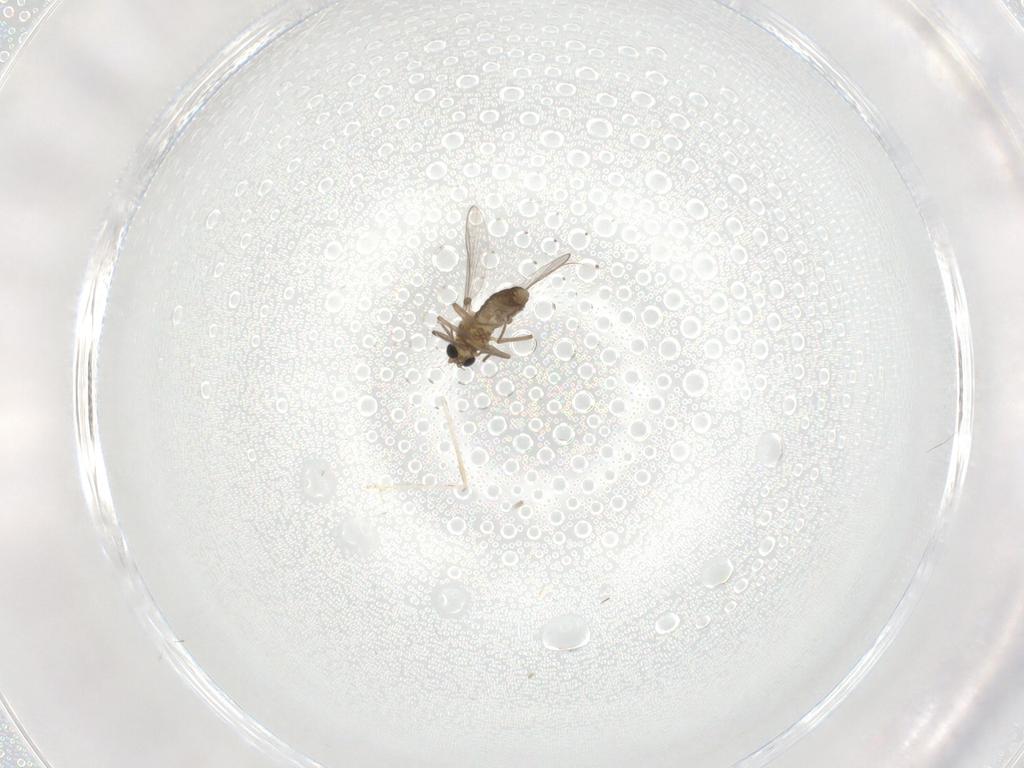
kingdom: Animalia
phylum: Arthropoda
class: Insecta
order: Diptera
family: Cecidomyiidae
